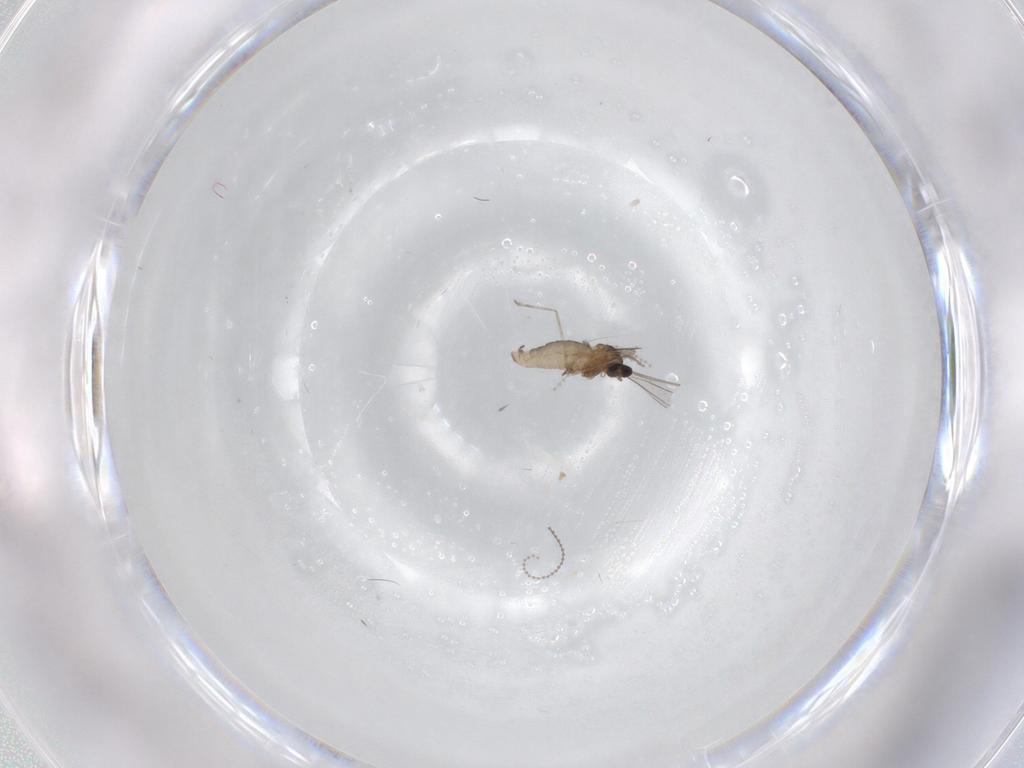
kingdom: Animalia
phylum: Arthropoda
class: Insecta
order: Diptera
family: Cecidomyiidae
